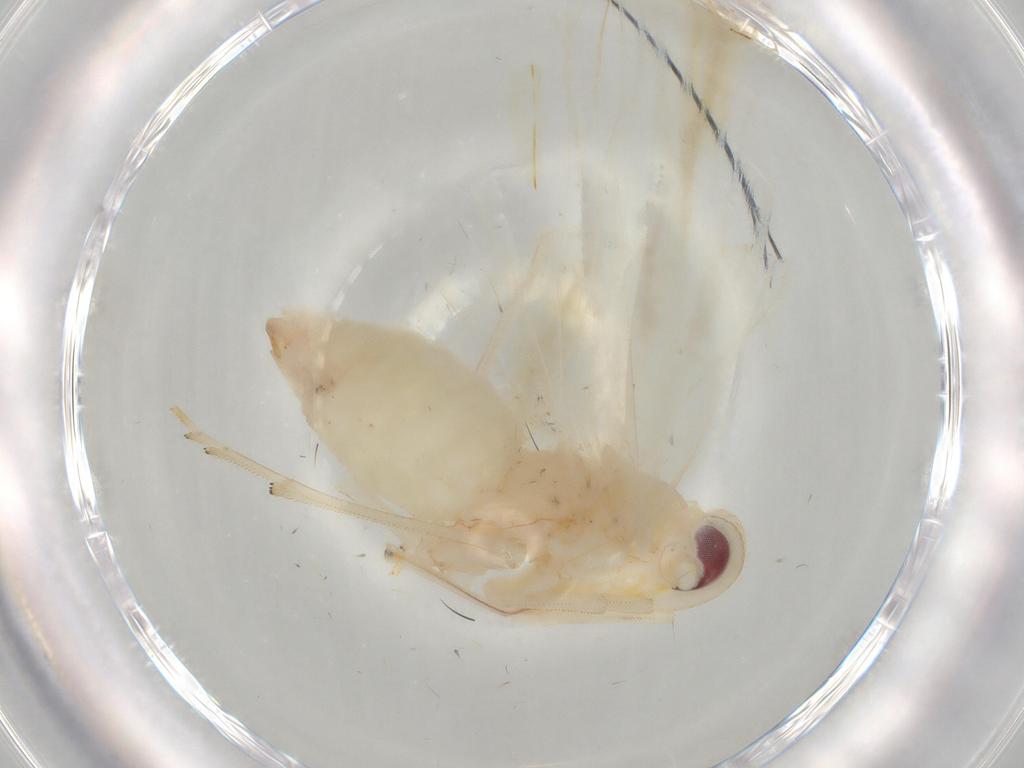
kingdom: Animalia
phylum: Arthropoda
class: Insecta
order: Hemiptera
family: Derbidae
